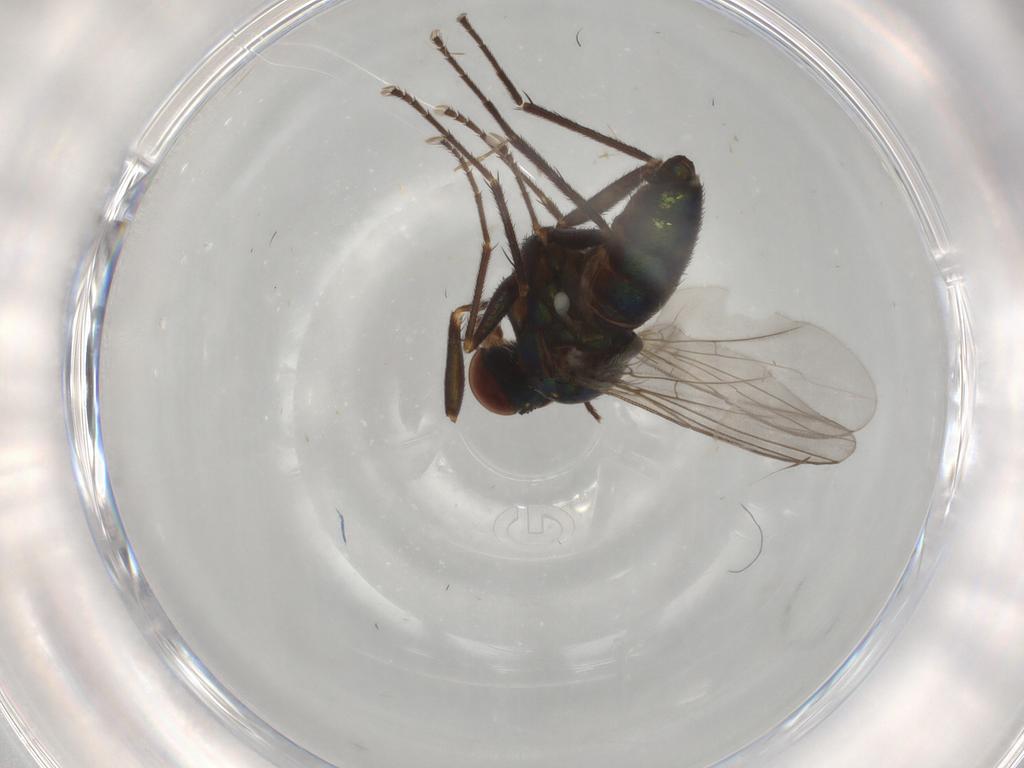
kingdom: Animalia
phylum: Arthropoda
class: Insecta
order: Diptera
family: Dolichopodidae
